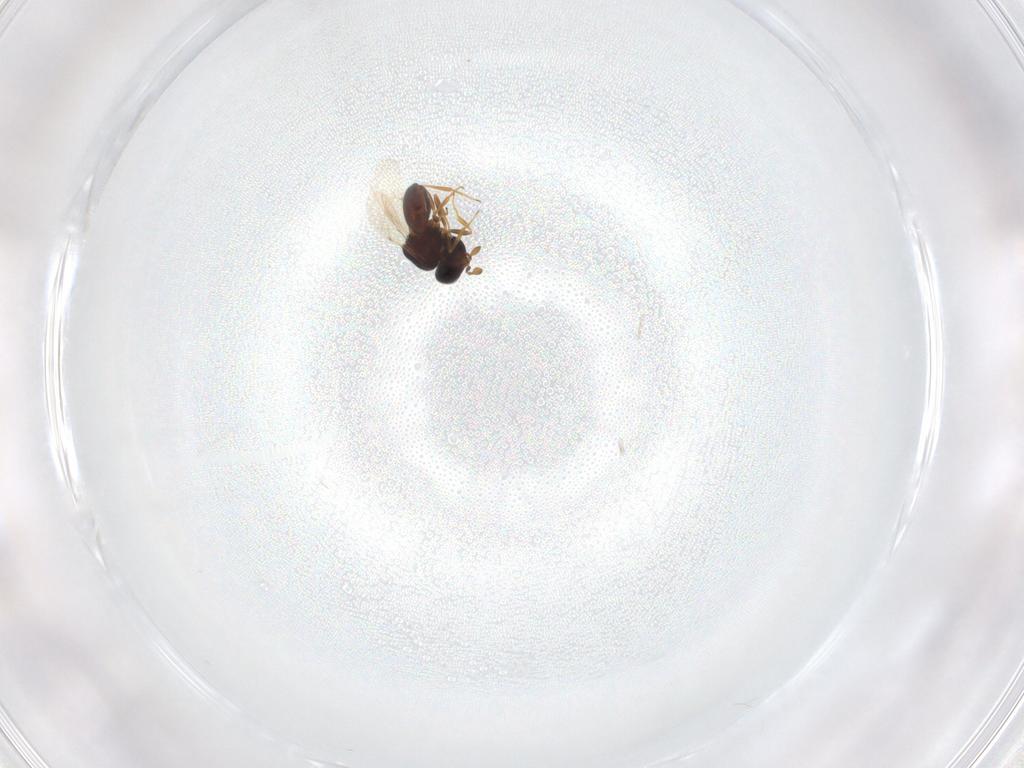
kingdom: Animalia
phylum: Arthropoda
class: Insecta
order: Hymenoptera
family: Scelionidae
